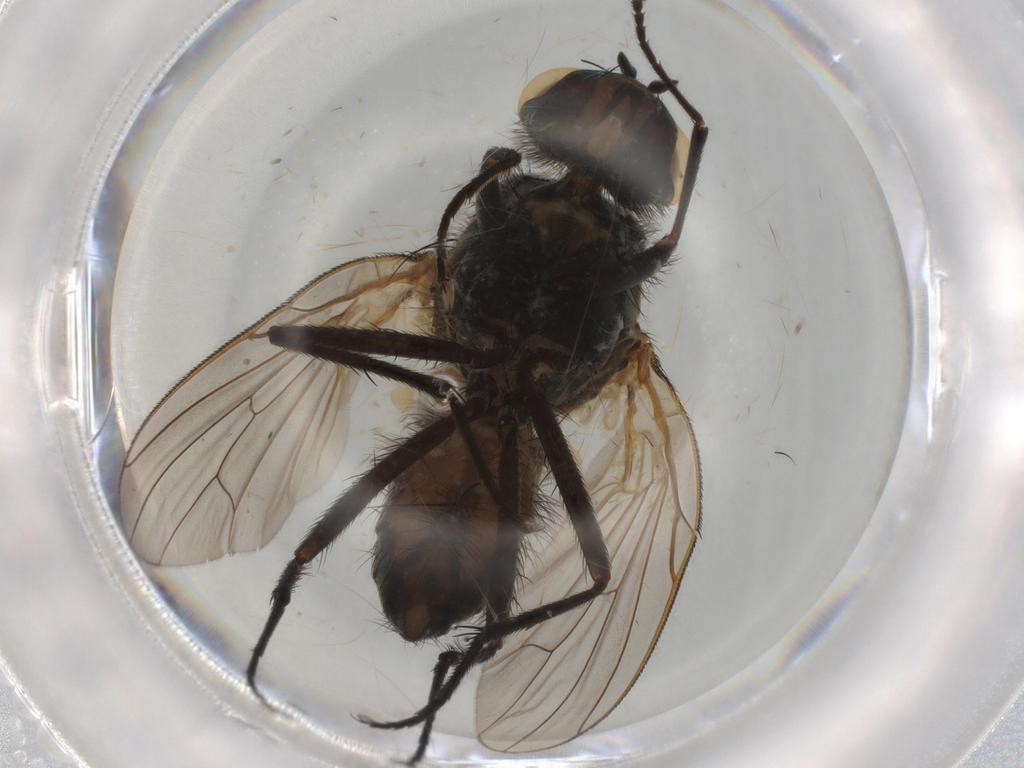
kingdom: Animalia
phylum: Arthropoda
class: Insecta
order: Diptera
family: Anthomyiidae
